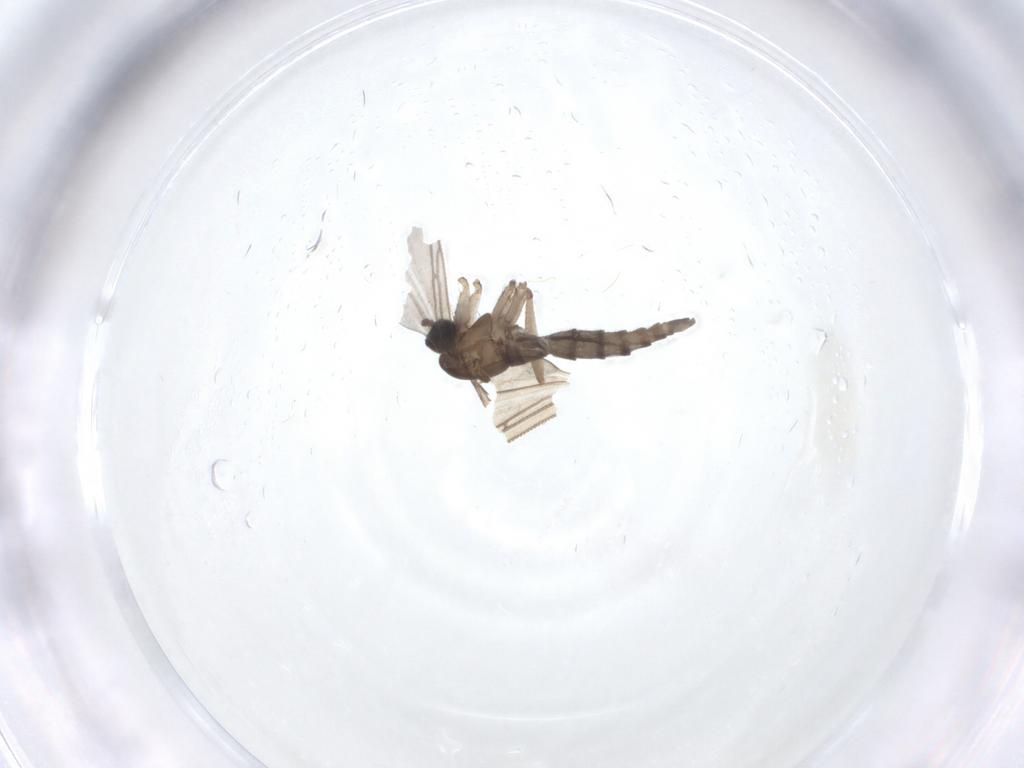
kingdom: Animalia
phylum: Arthropoda
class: Insecta
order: Diptera
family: Sciaridae
